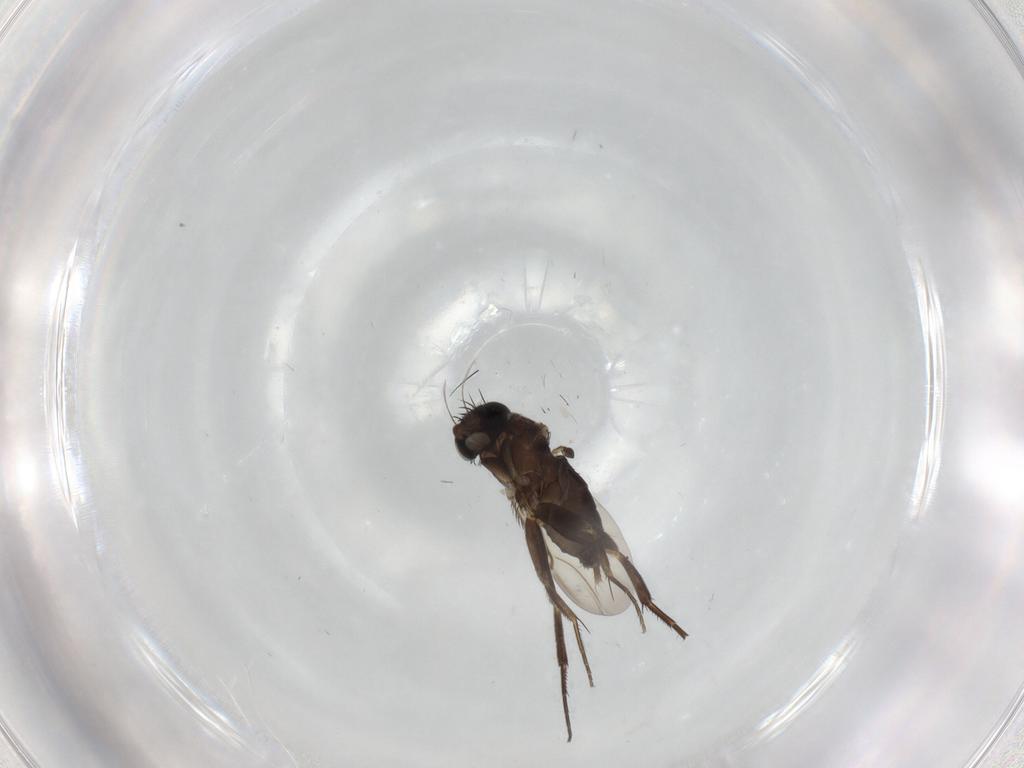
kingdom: Animalia
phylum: Arthropoda
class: Insecta
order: Diptera
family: Phoridae
